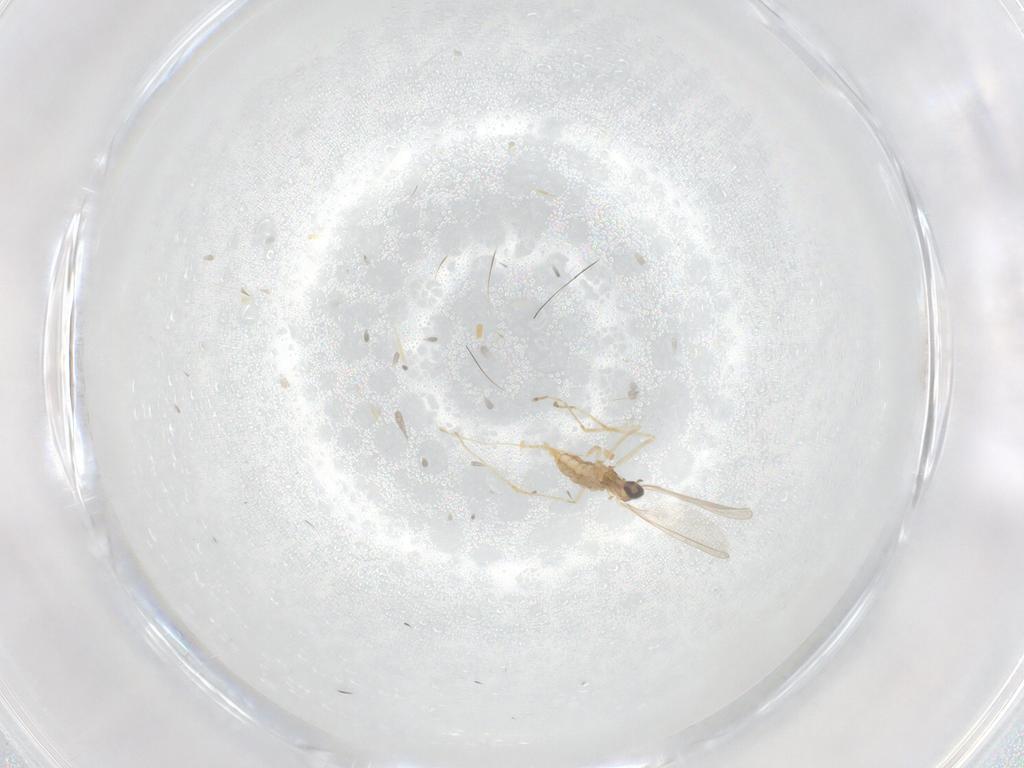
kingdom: Animalia
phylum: Arthropoda
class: Insecta
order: Diptera
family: Cecidomyiidae
